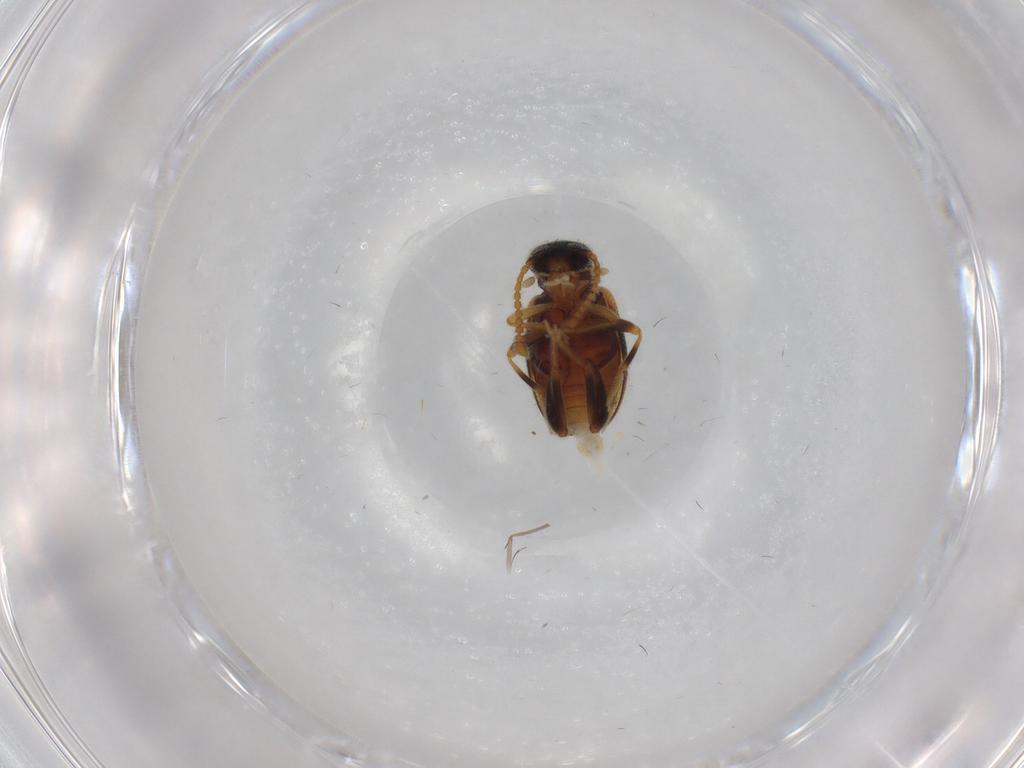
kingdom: Animalia
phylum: Arthropoda
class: Insecta
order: Coleoptera
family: Aderidae
